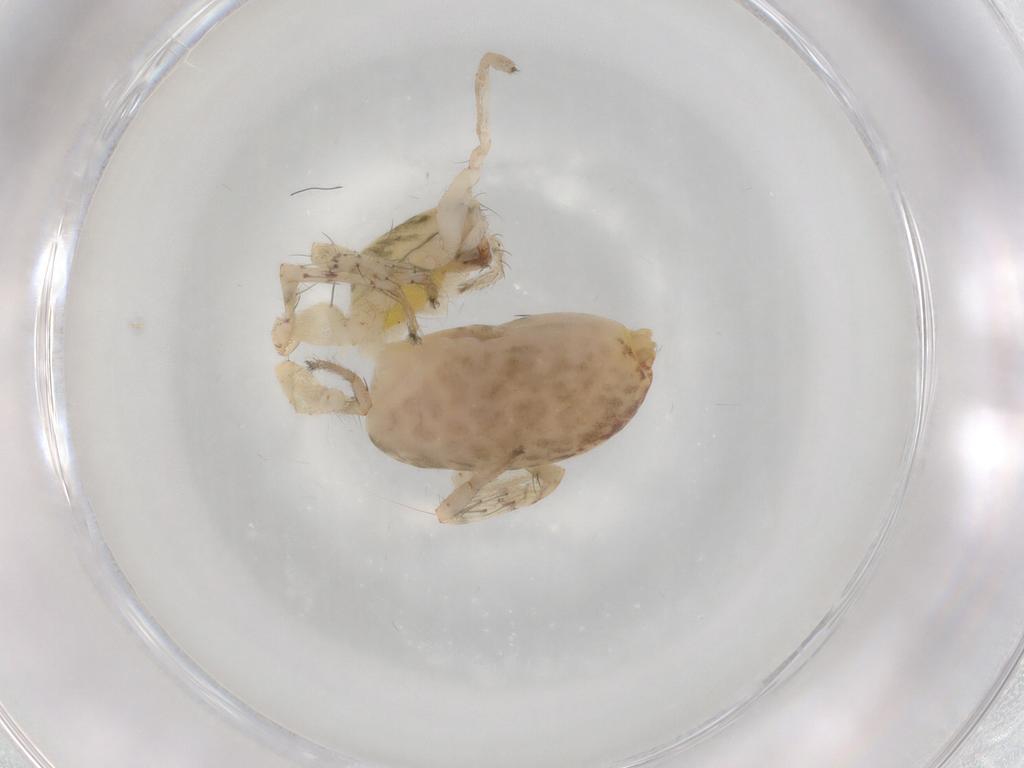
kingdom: Animalia
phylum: Arthropoda
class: Arachnida
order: Araneae
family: Anyphaenidae
